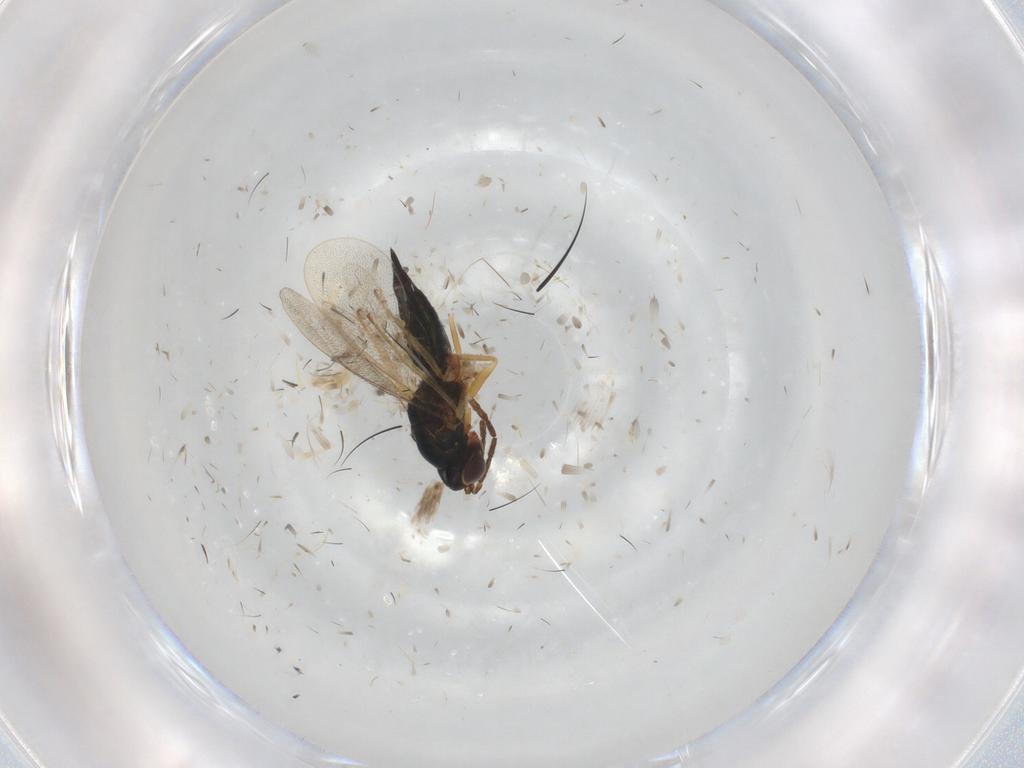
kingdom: Animalia
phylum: Arthropoda
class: Insecta
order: Hymenoptera
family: Eulophidae
